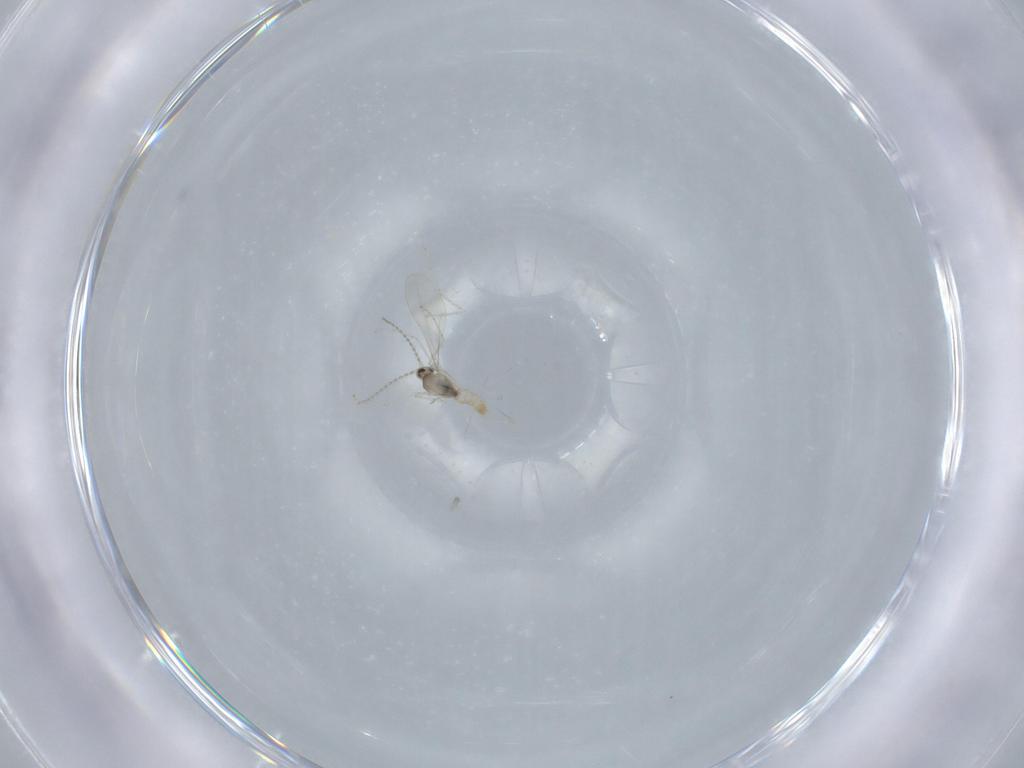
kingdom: Animalia
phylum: Arthropoda
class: Insecta
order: Diptera
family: Cecidomyiidae
